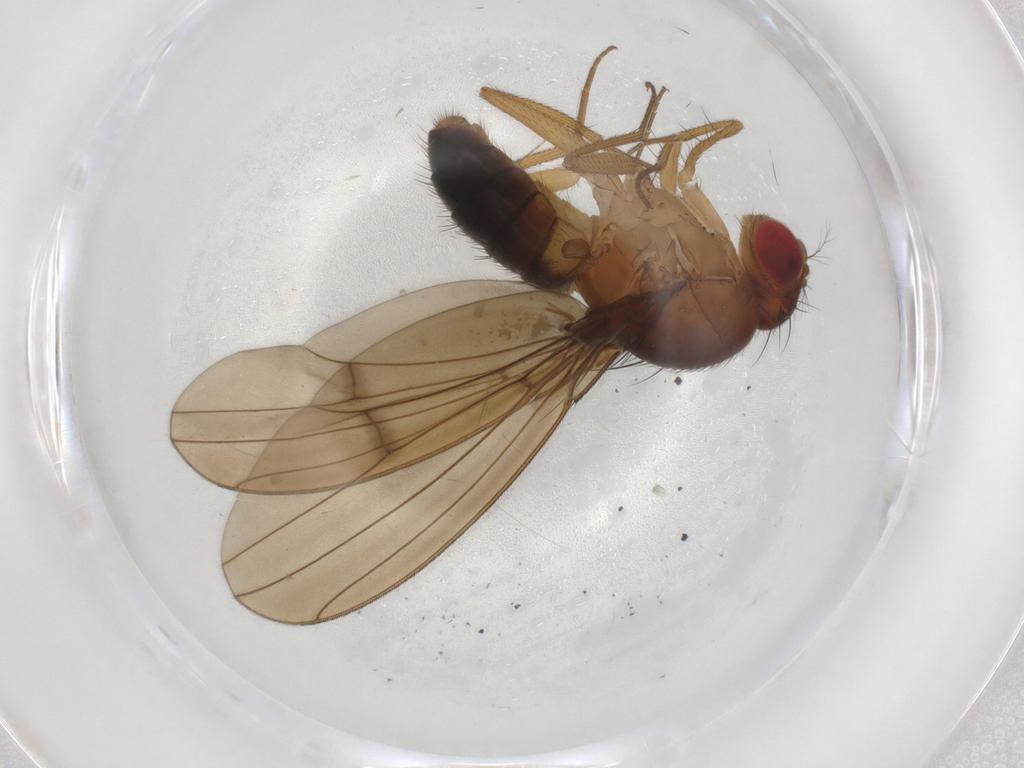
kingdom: Animalia
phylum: Arthropoda
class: Insecta
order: Diptera
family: Drosophilidae
